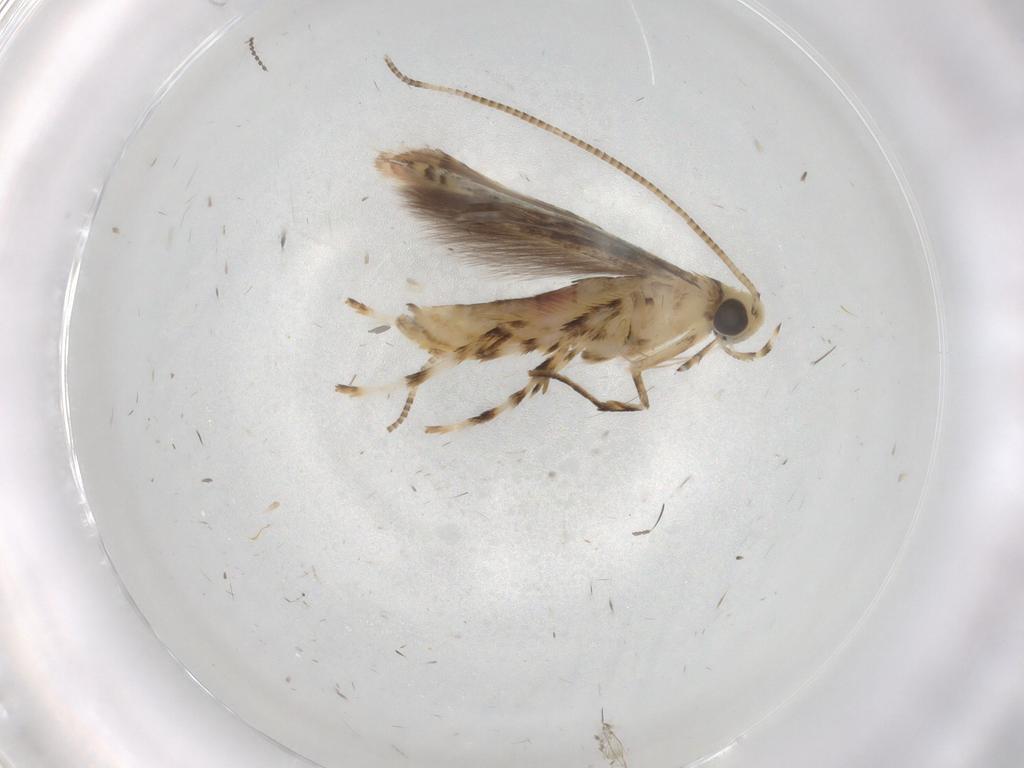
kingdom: Animalia
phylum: Arthropoda
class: Insecta
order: Lepidoptera
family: Gelechiidae
